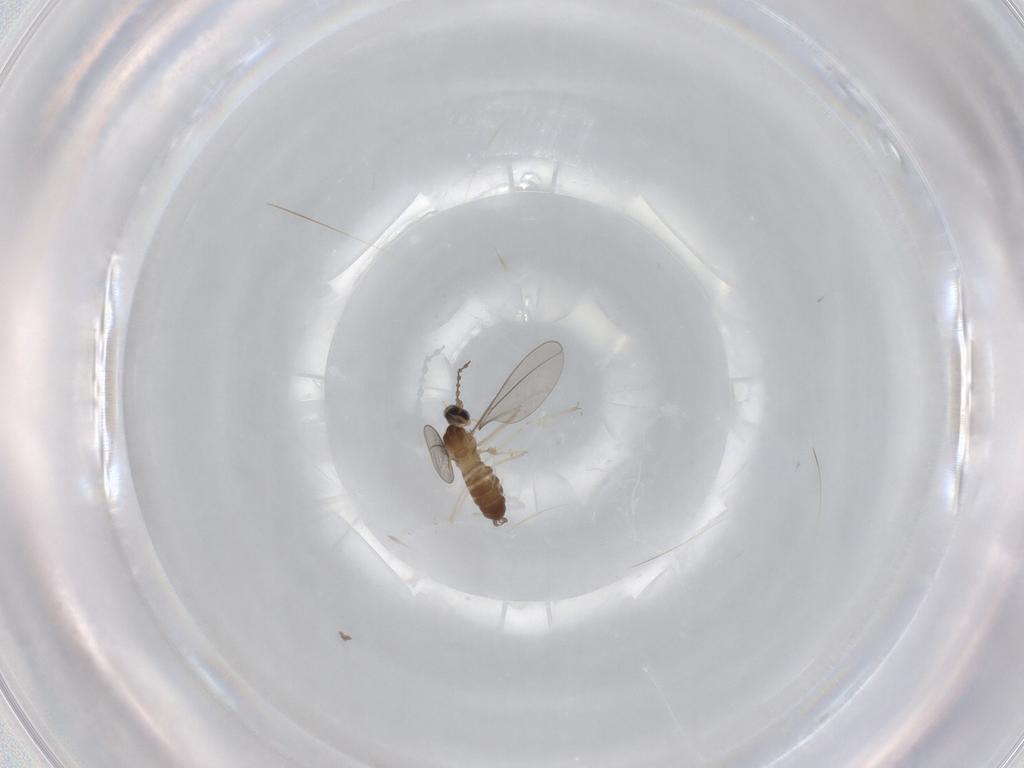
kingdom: Animalia
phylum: Arthropoda
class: Insecta
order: Diptera
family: Chironomidae
